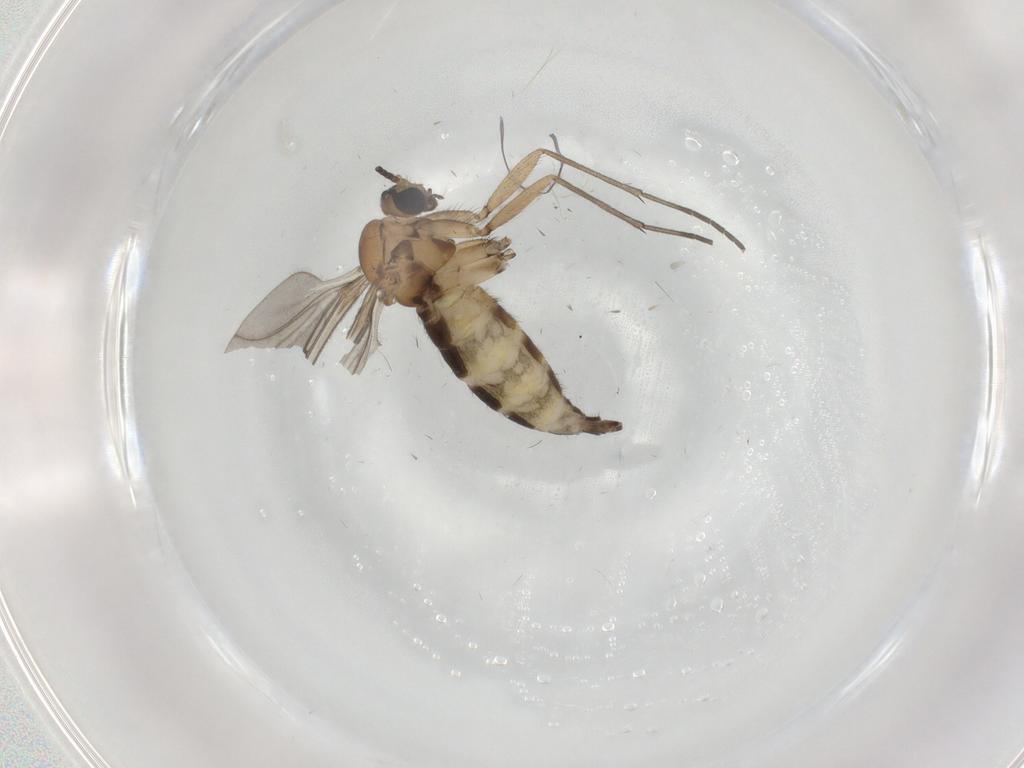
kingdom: Animalia
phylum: Arthropoda
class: Insecta
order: Diptera
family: Sciaridae
